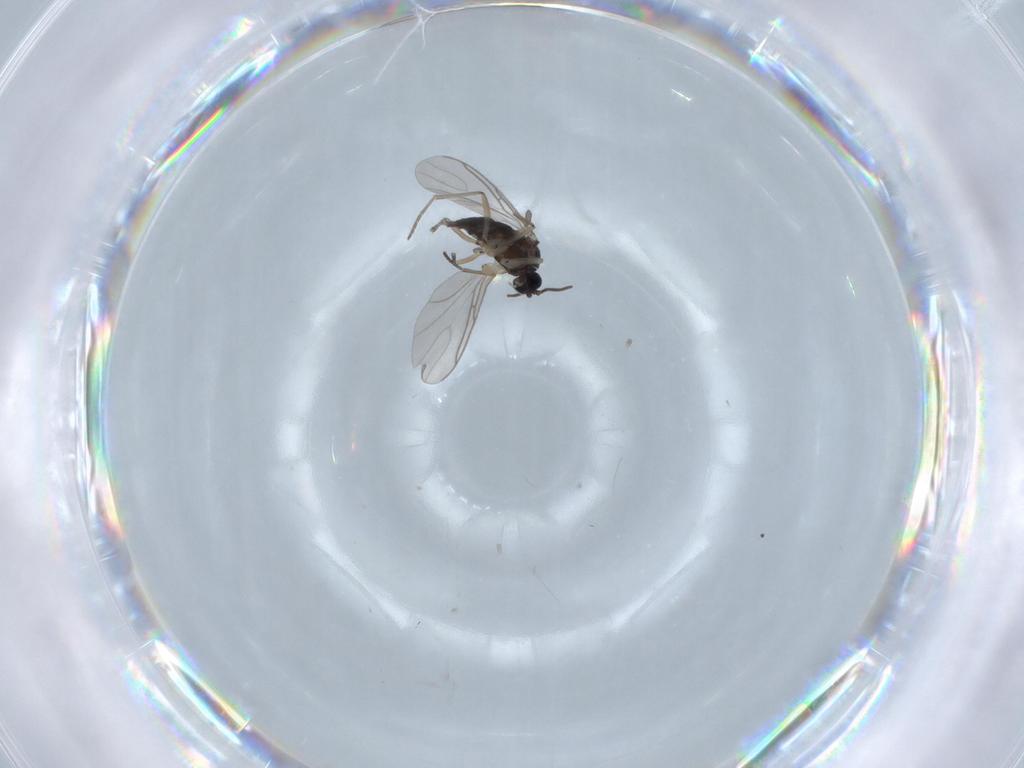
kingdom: Animalia
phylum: Arthropoda
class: Insecta
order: Diptera
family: Sciaridae
